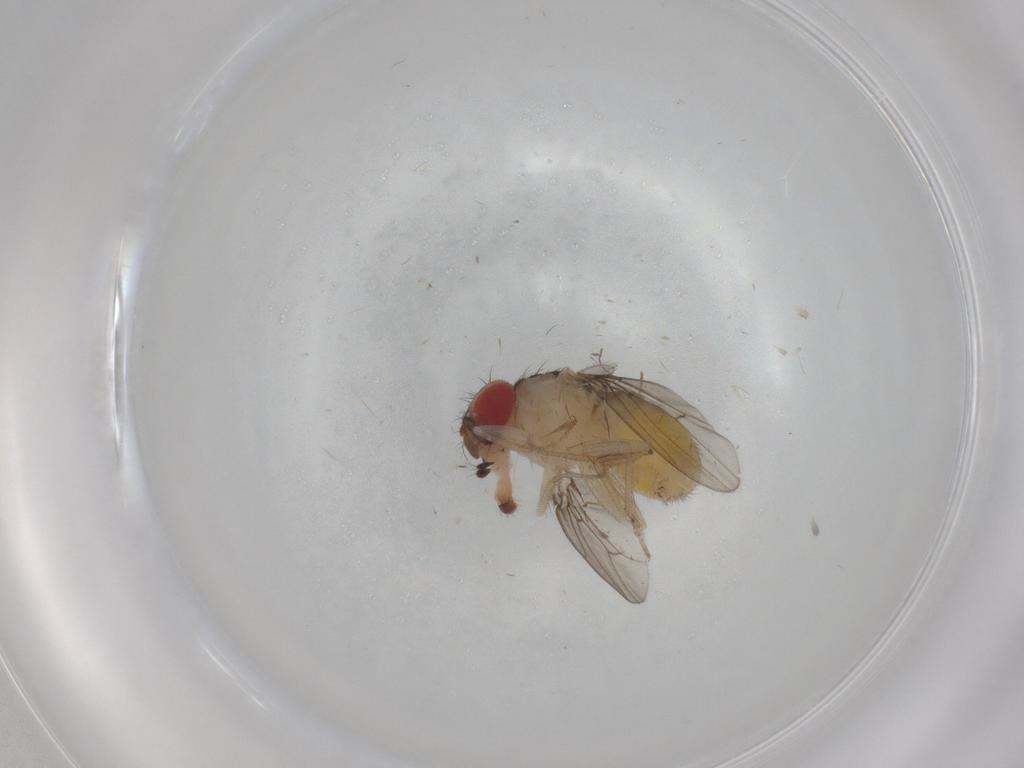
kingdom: Animalia
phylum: Arthropoda
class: Insecta
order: Diptera
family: Drosophilidae
